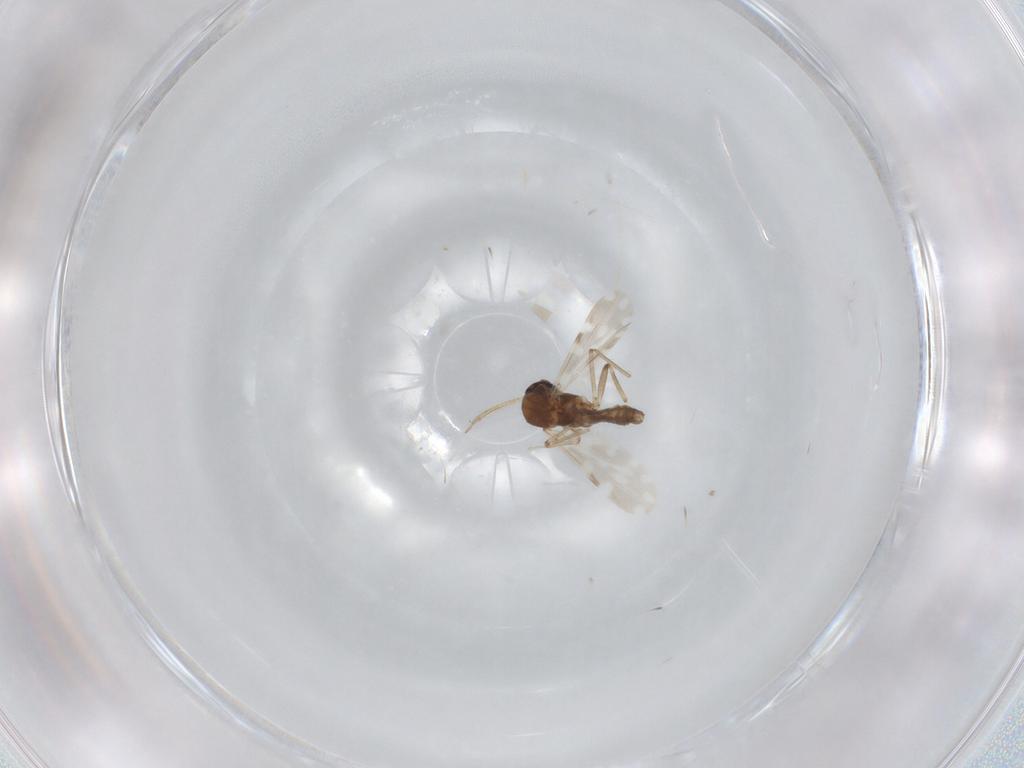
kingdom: Animalia
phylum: Arthropoda
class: Insecta
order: Diptera
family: Ceratopogonidae
